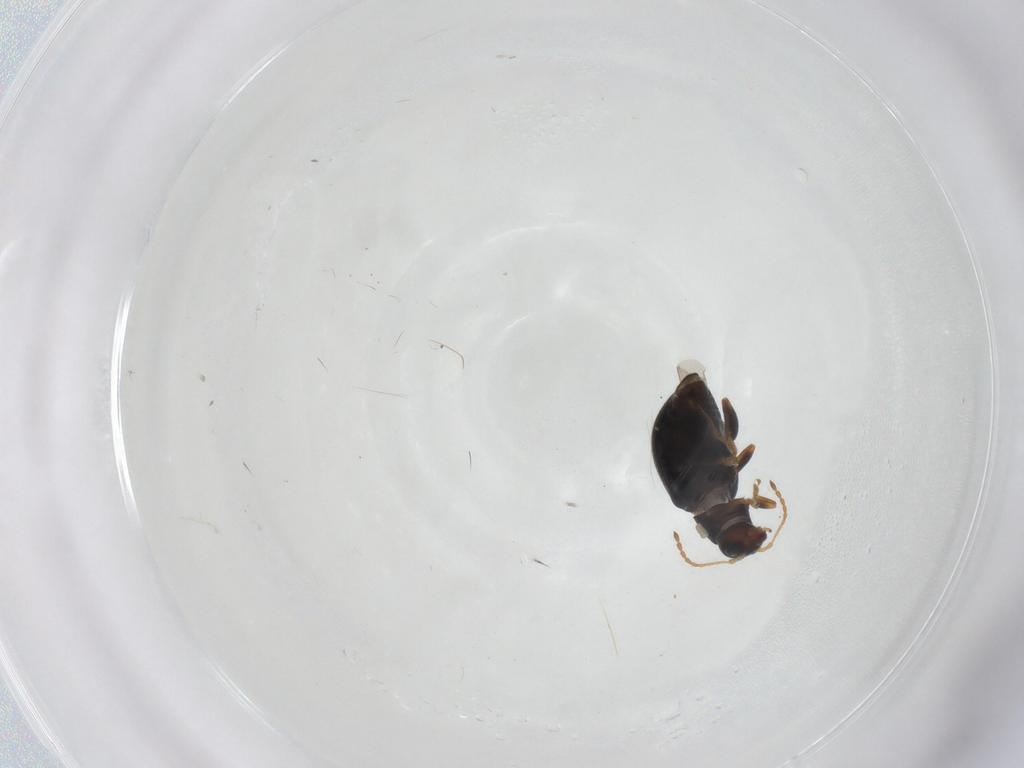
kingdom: Animalia
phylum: Arthropoda
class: Insecta
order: Coleoptera
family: Chrysomelidae
